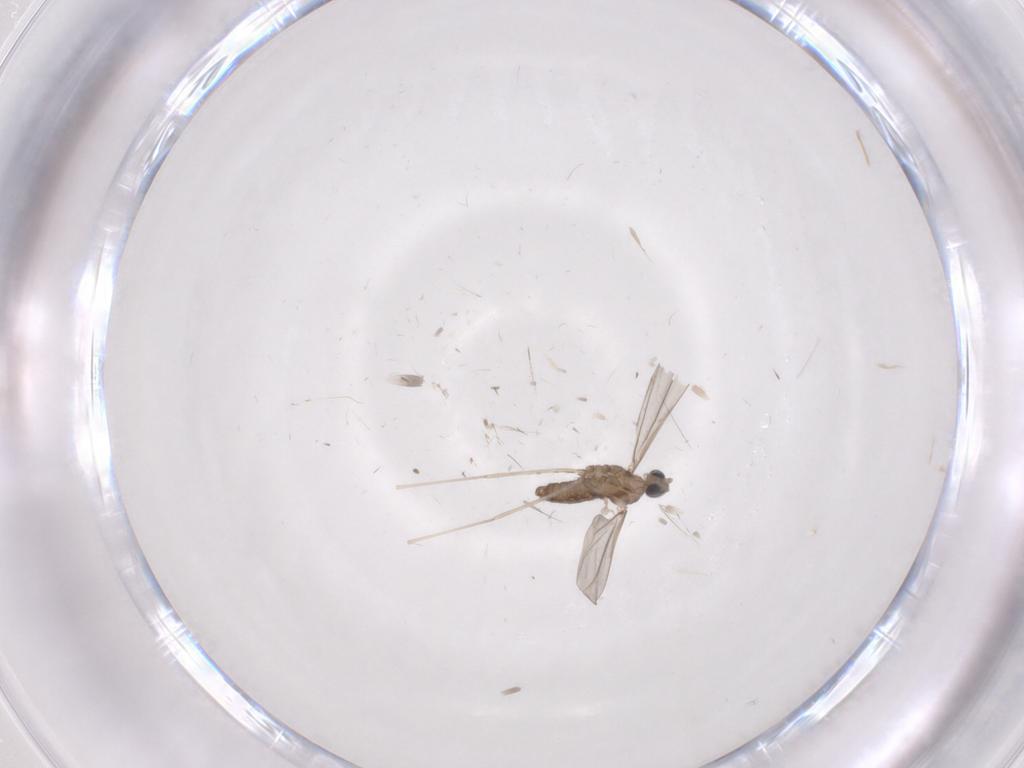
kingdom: Animalia
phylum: Arthropoda
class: Insecta
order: Diptera
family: Cecidomyiidae
